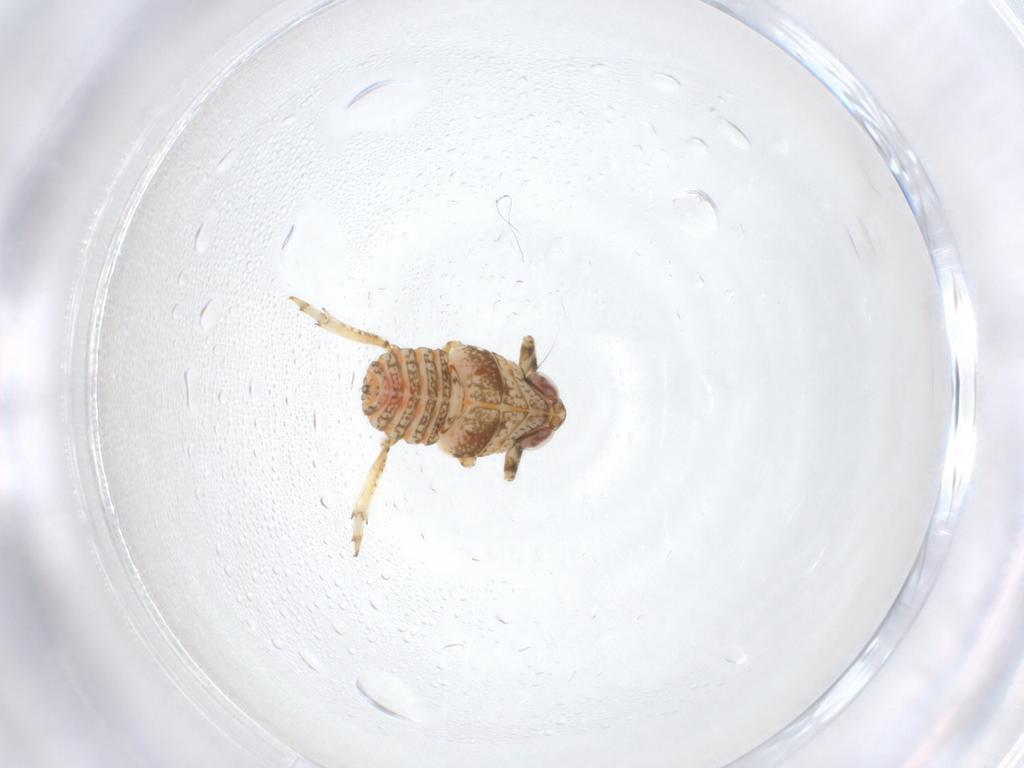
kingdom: Animalia
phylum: Arthropoda
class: Insecta
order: Hemiptera
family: Issidae
